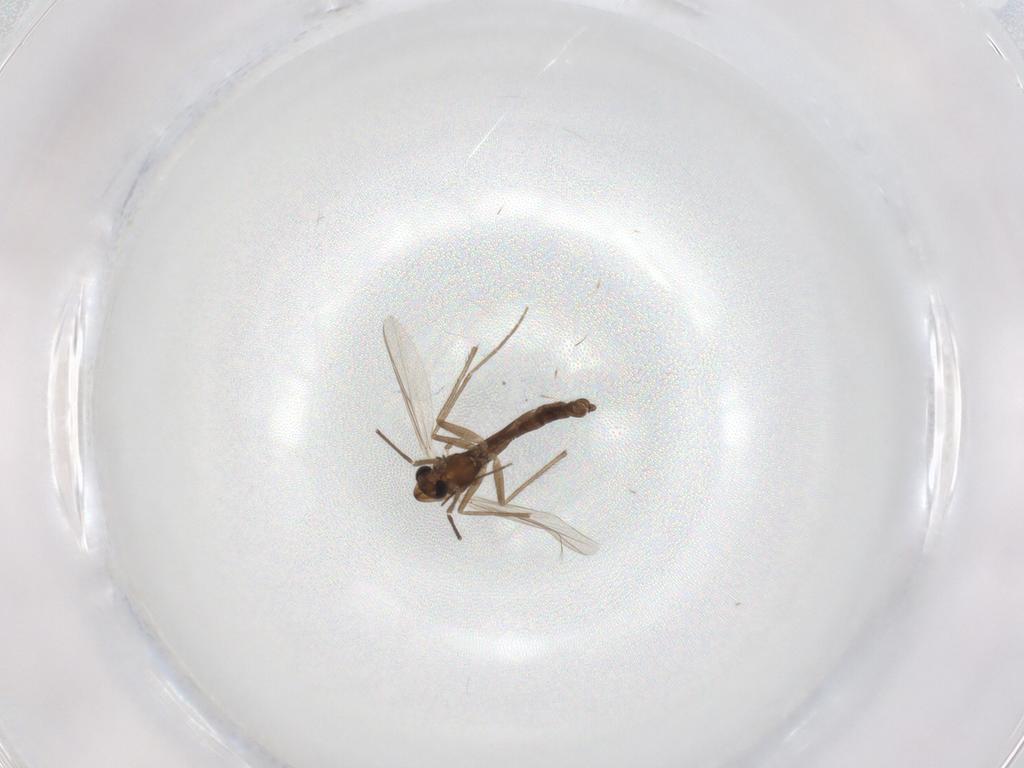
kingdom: Animalia
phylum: Arthropoda
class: Insecta
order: Diptera
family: Chironomidae
